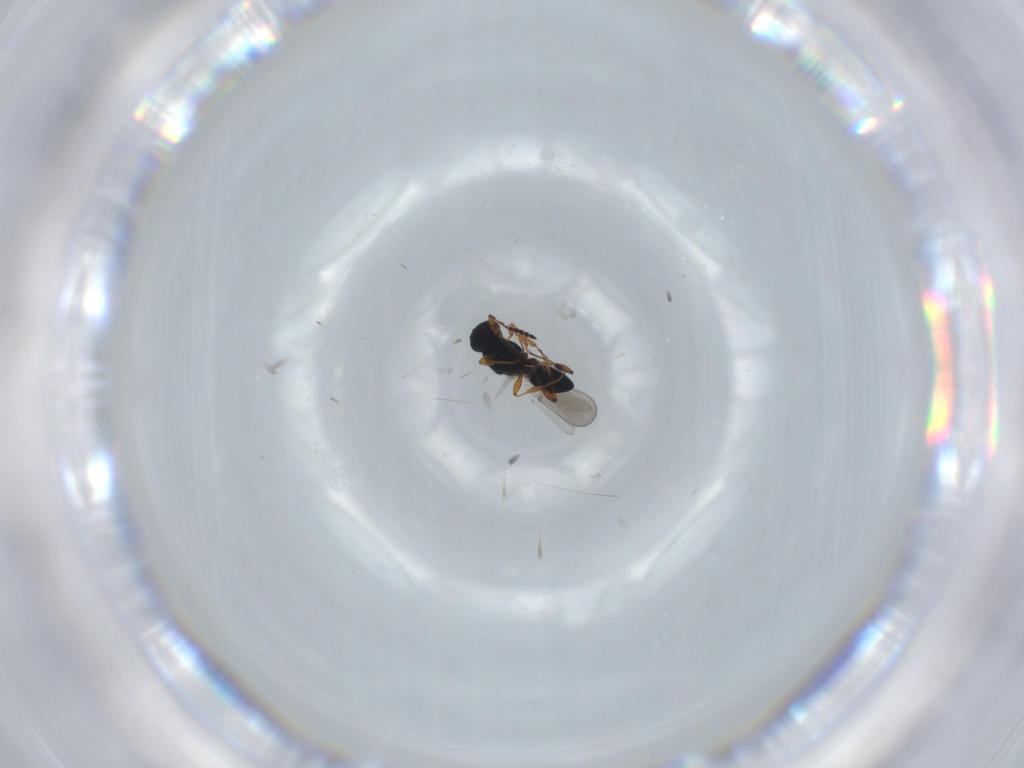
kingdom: Animalia
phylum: Arthropoda
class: Insecta
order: Hymenoptera
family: Platygastridae
